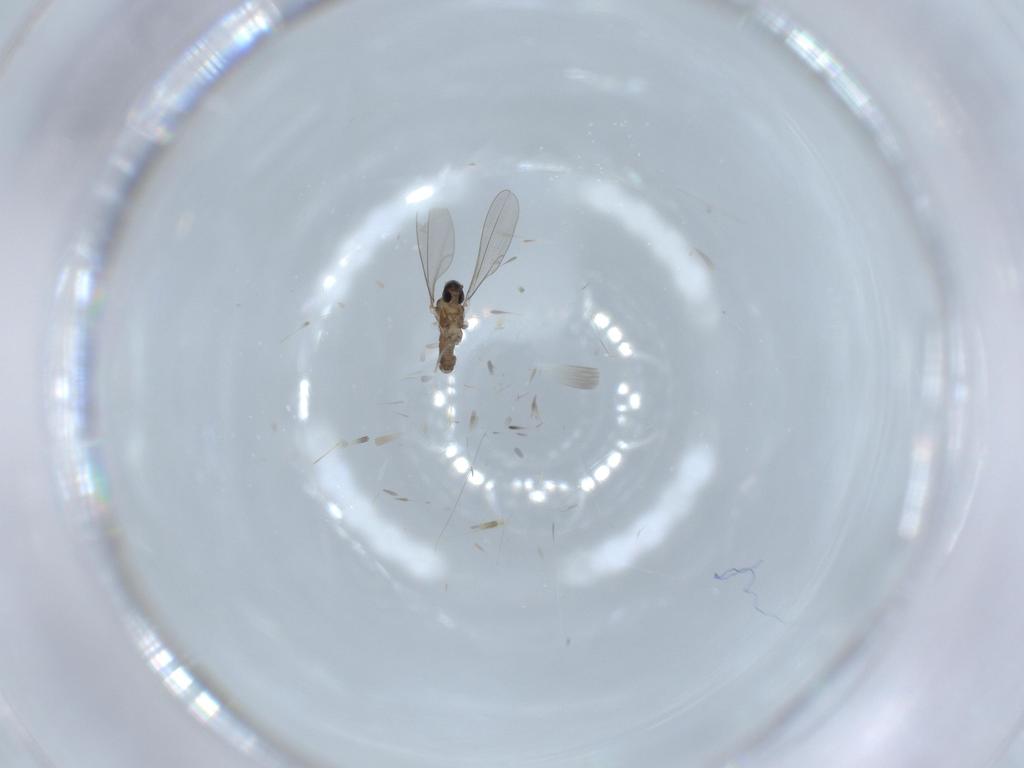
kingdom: Animalia
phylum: Arthropoda
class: Insecta
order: Diptera
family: Cecidomyiidae
